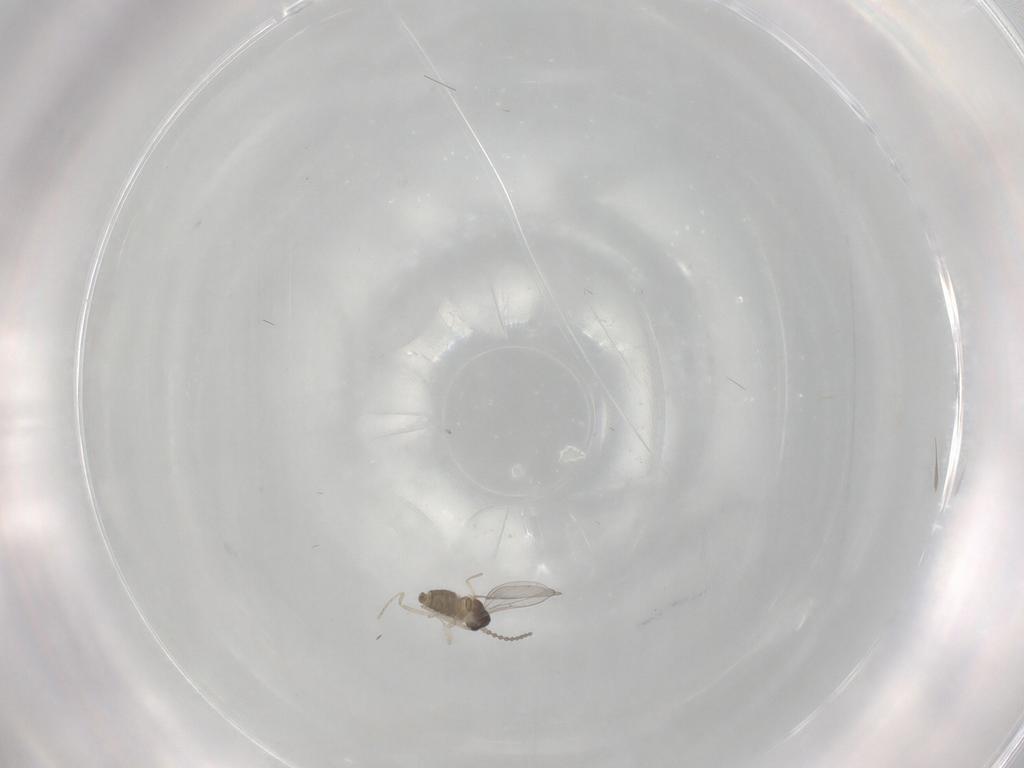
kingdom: Animalia
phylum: Arthropoda
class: Insecta
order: Diptera
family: Cecidomyiidae
